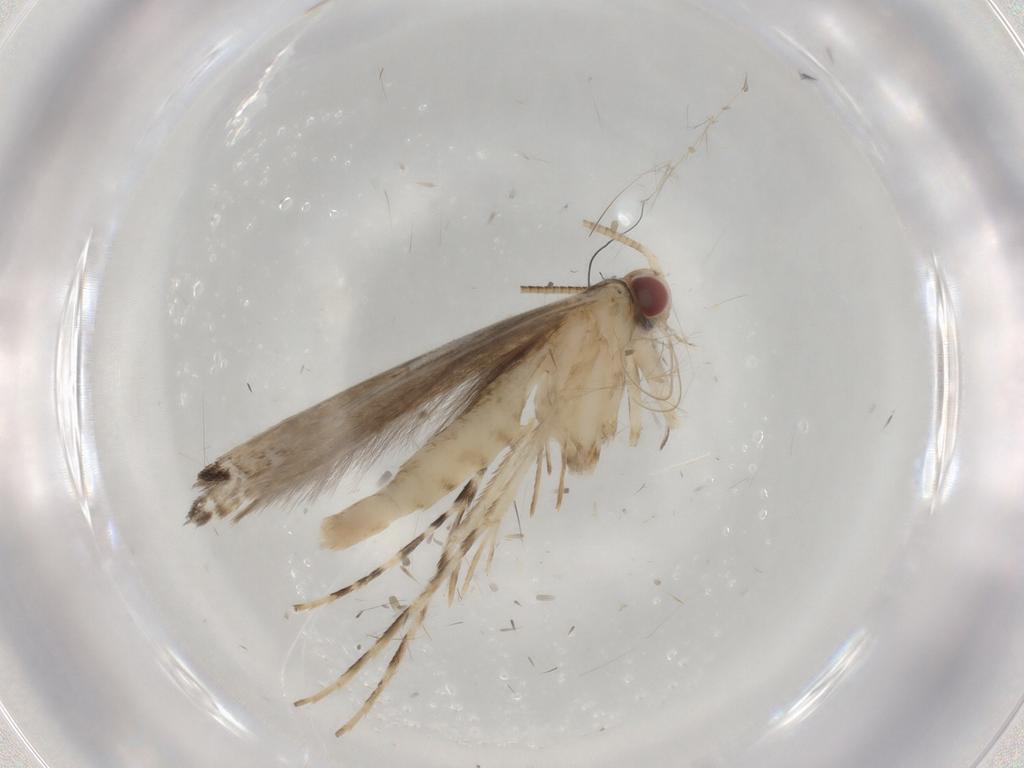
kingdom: Animalia
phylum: Arthropoda
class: Insecta
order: Lepidoptera
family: Gracillariidae
